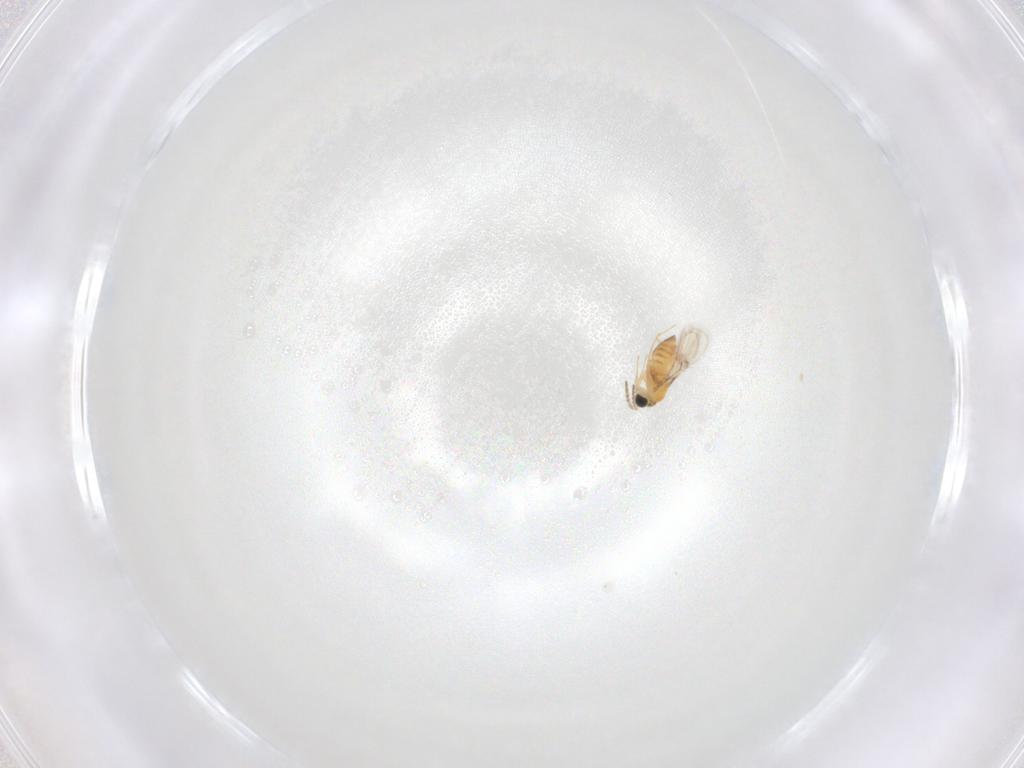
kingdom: Animalia
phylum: Arthropoda
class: Insecta
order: Hymenoptera
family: Trichogrammatidae
